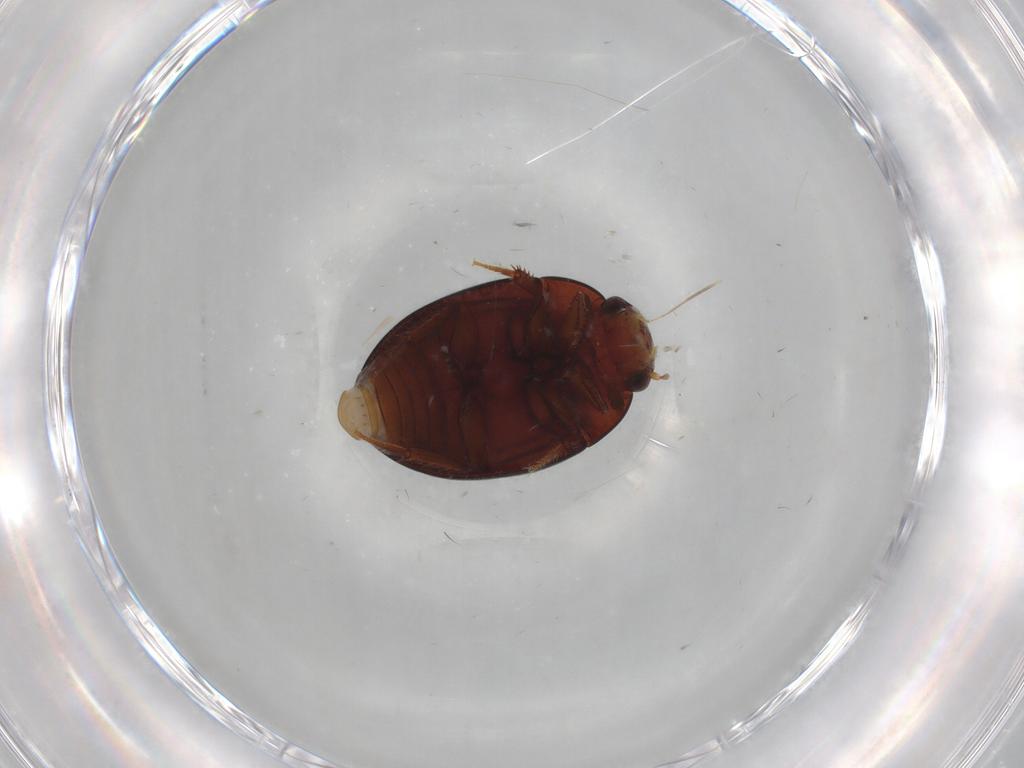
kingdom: Animalia
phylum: Arthropoda
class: Insecta
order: Coleoptera
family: Hydrophilidae
